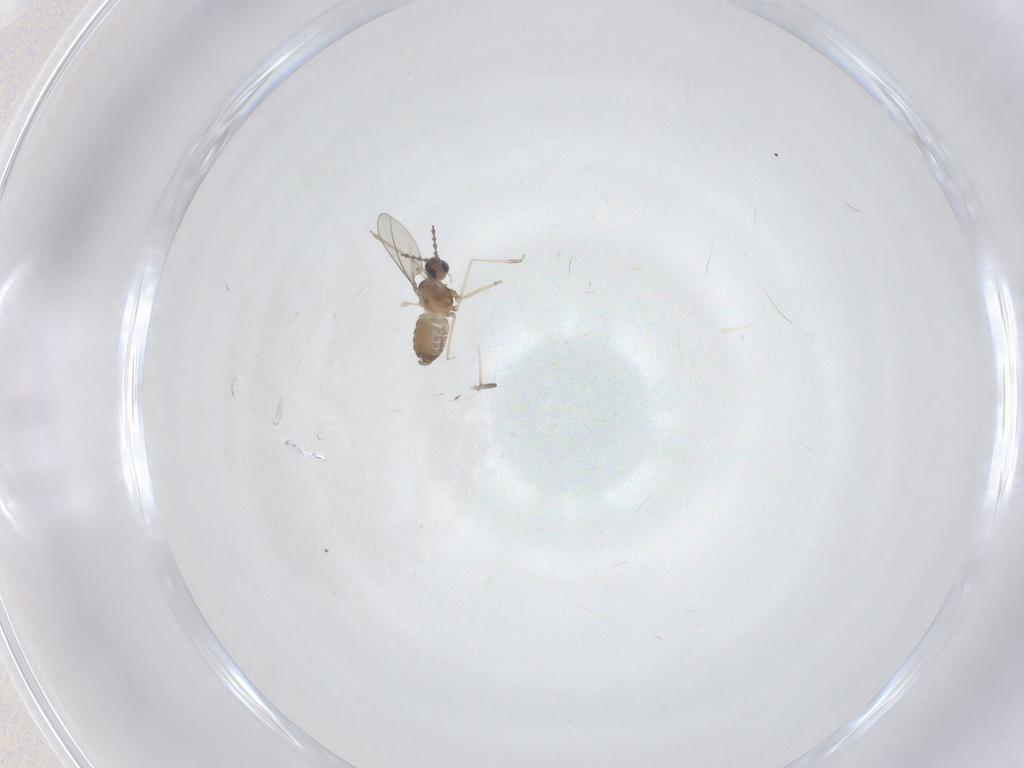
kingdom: Animalia
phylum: Arthropoda
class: Insecta
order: Diptera
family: Cecidomyiidae
